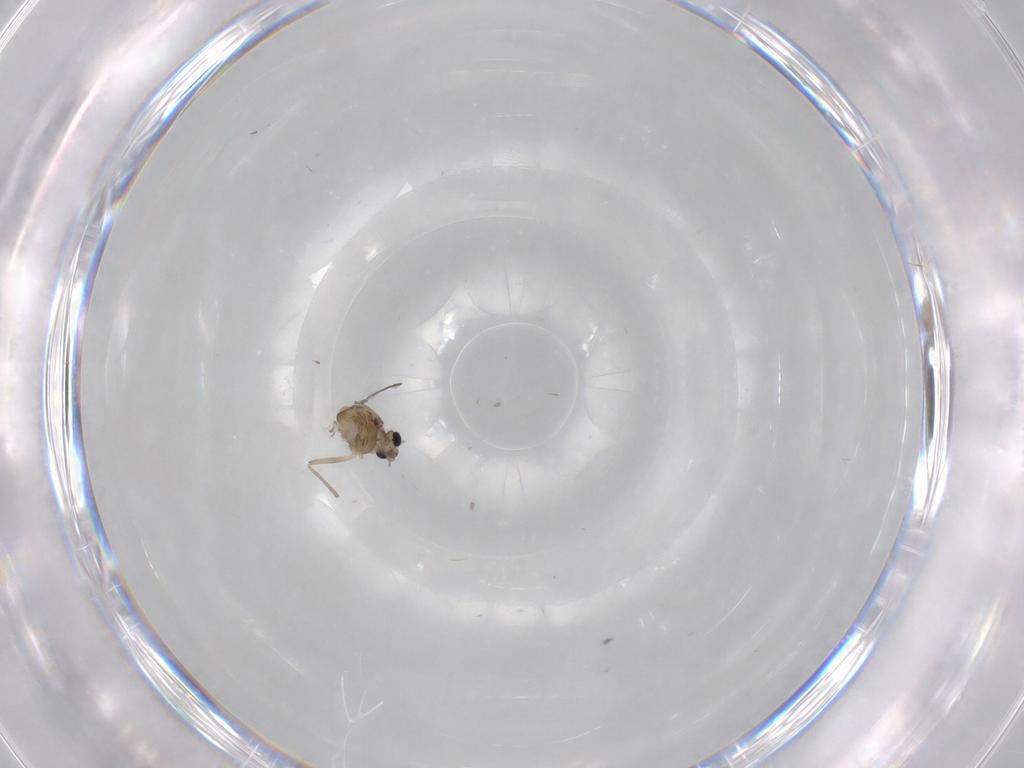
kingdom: Animalia
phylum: Arthropoda
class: Insecta
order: Diptera
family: Chironomidae
